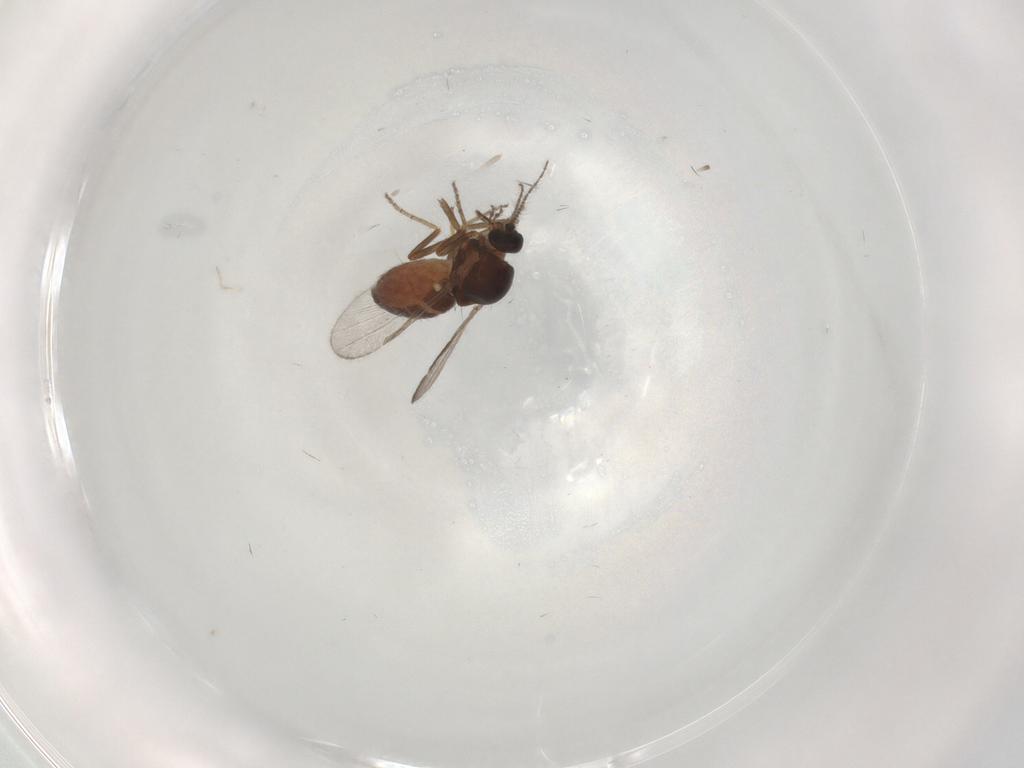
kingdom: Animalia
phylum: Arthropoda
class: Insecta
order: Diptera
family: Ceratopogonidae
